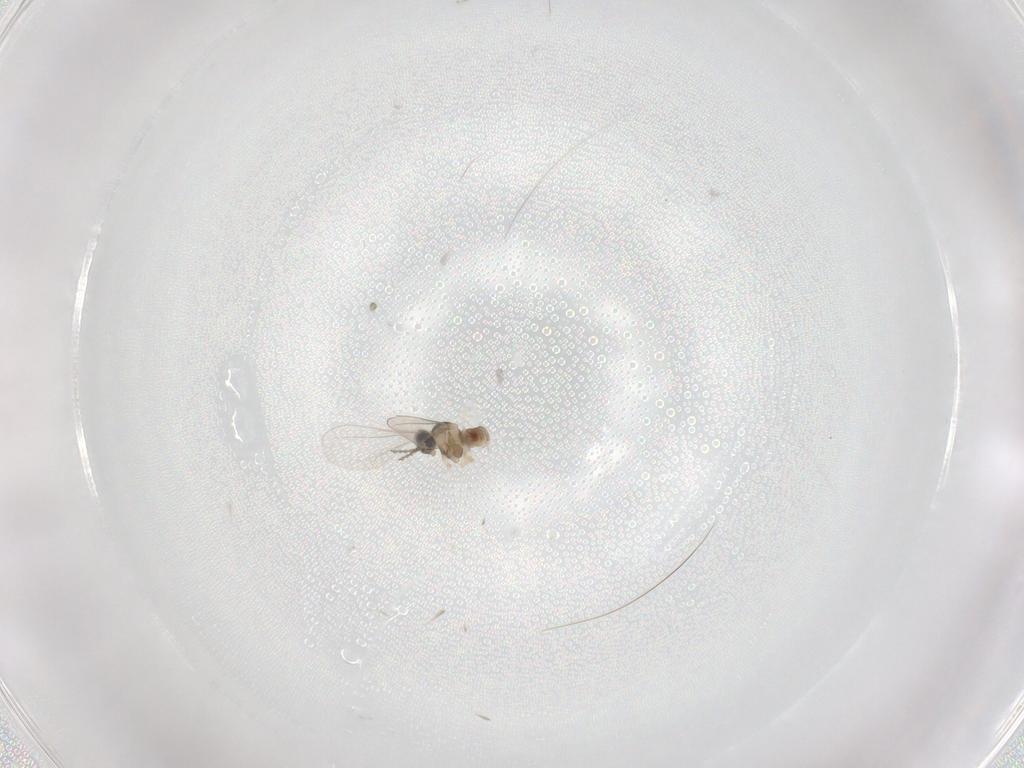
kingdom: Animalia
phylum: Arthropoda
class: Insecta
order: Diptera
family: Cecidomyiidae
